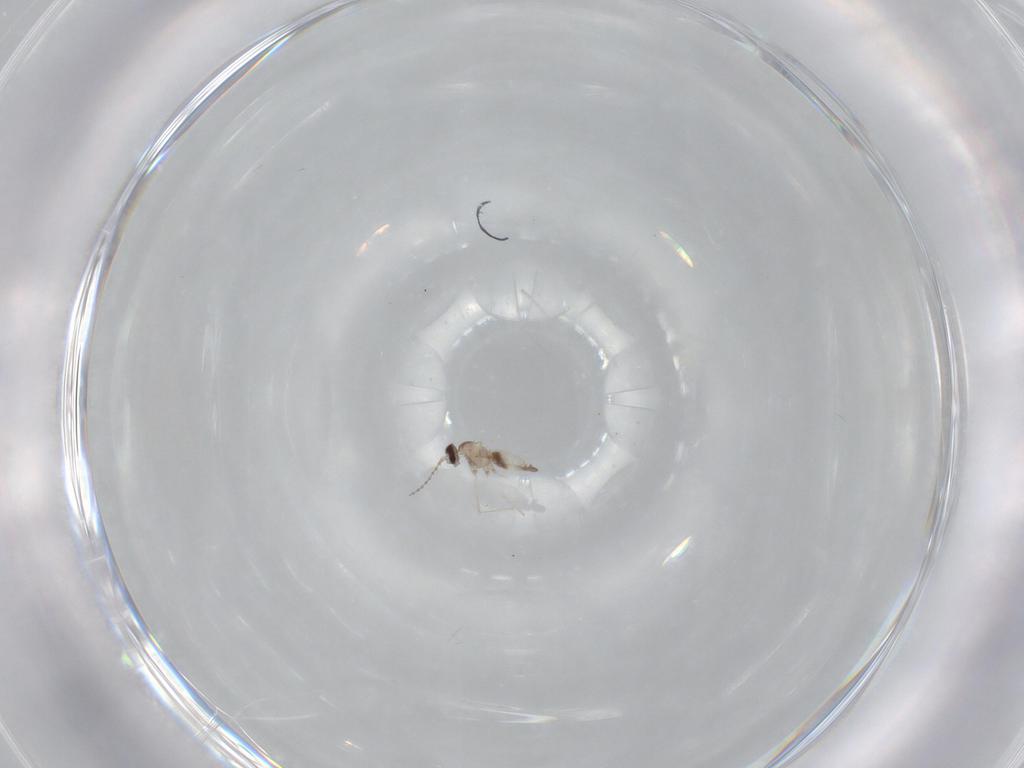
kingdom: Animalia
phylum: Arthropoda
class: Insecta
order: Diptera
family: Cecidomyiidae
